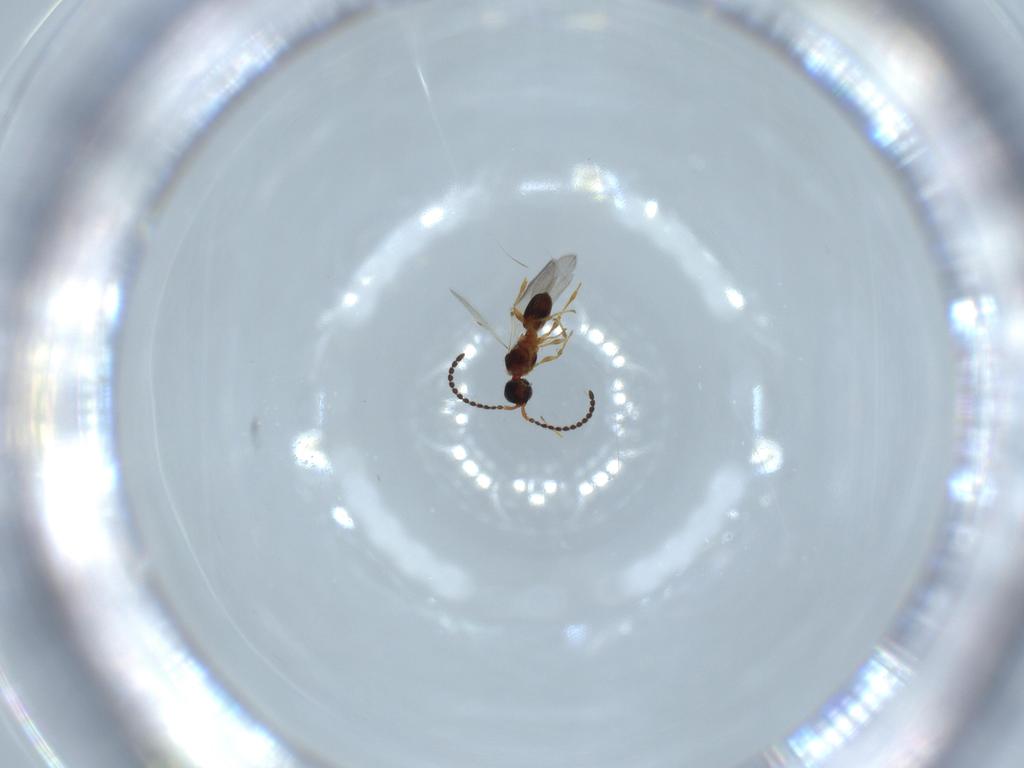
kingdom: Animalia
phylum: Arthropoda
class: Insecta
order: Hymenoptera
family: Diapriidae
